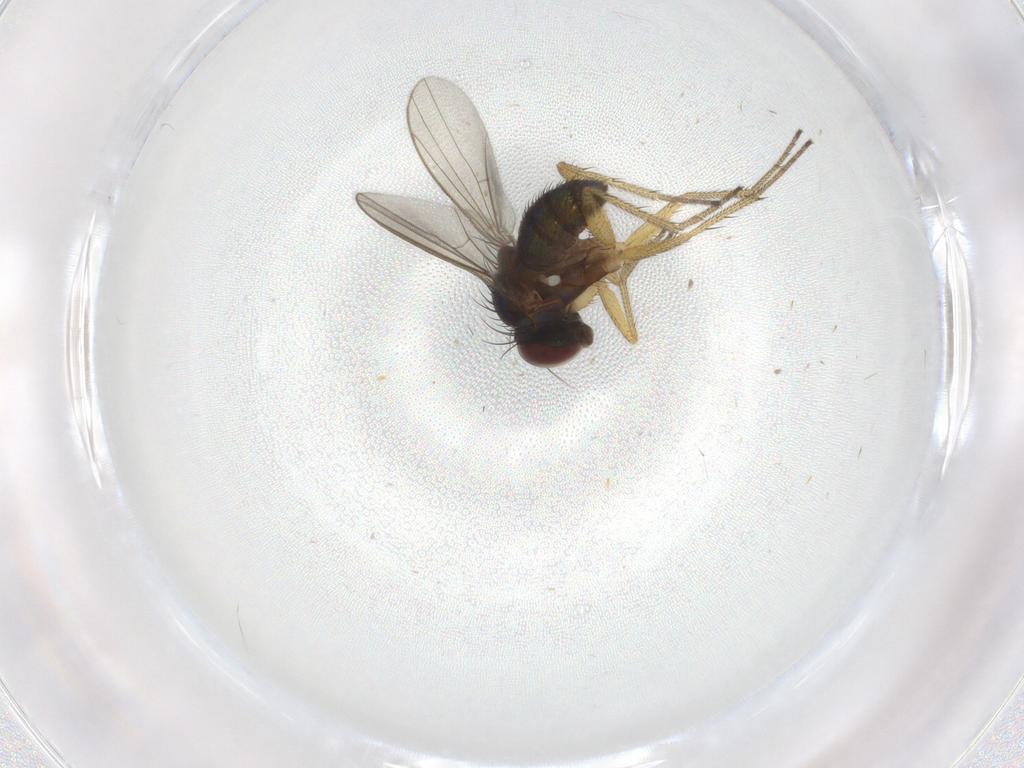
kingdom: Animalia
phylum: Arthropoda
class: Insecta
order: Diptera
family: Dolichopodidae
